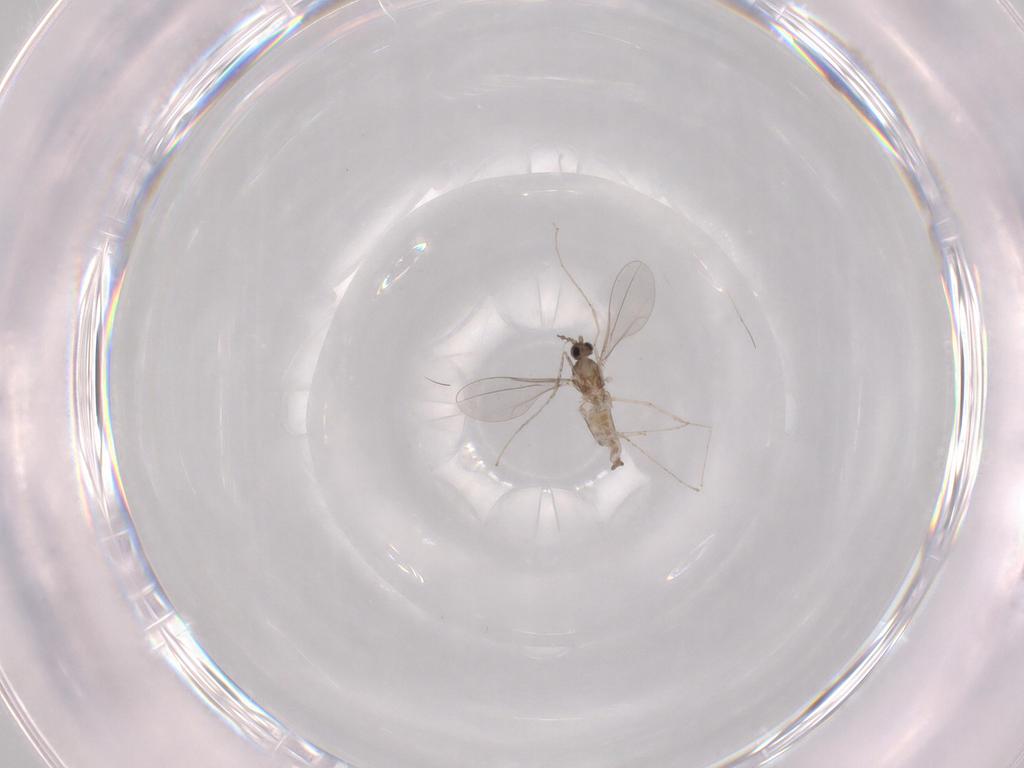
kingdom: Animalia
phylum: Arthropoda
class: Insecta
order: Diptera
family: Cecidomyiidae
